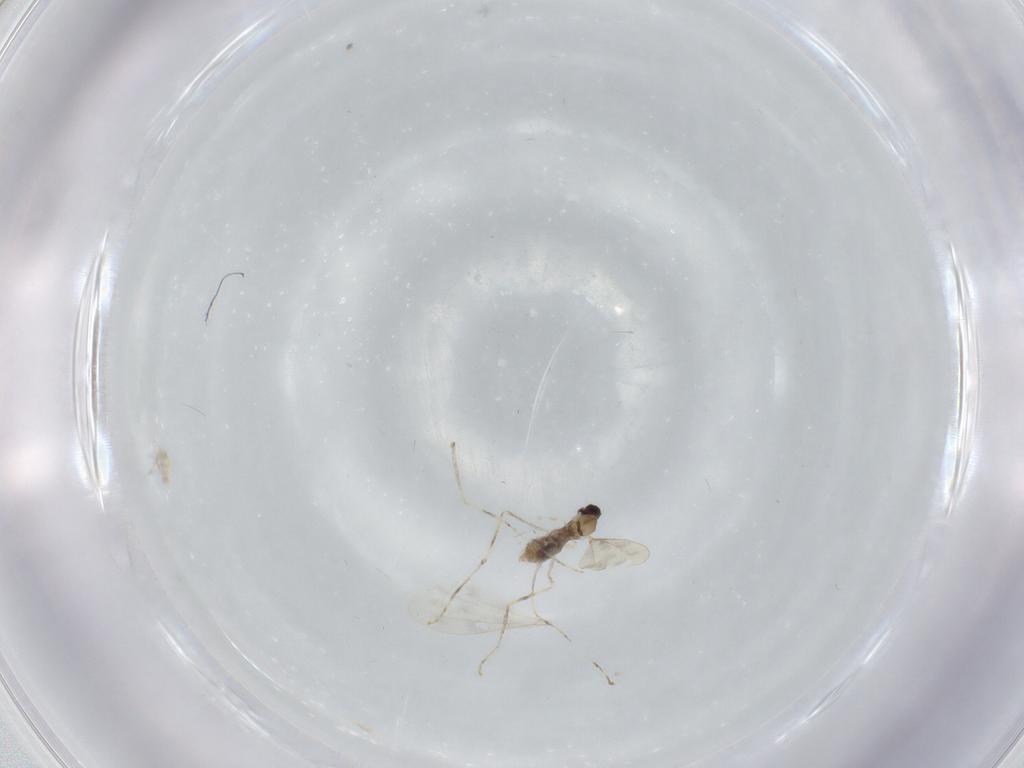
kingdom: Animalia
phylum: Arthropoda
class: Insecta
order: Diptera
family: Cecidomyiidae
